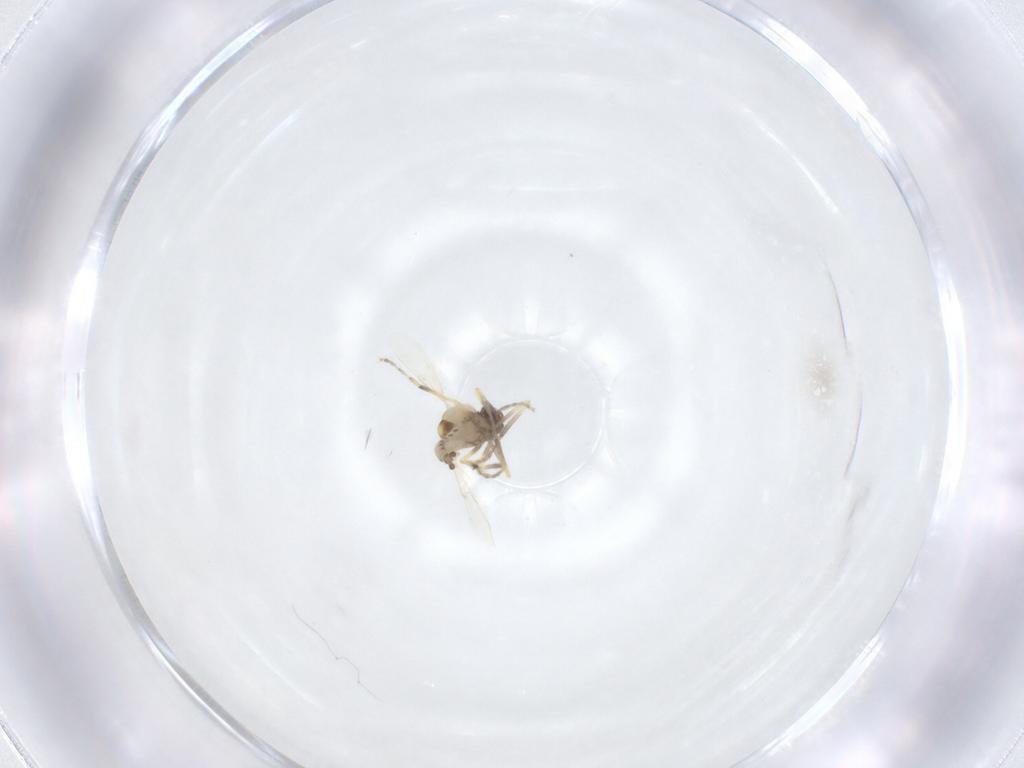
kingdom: Animalia
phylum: Arthropoda
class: Insecta
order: Diptera
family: Ceratopogonidae
